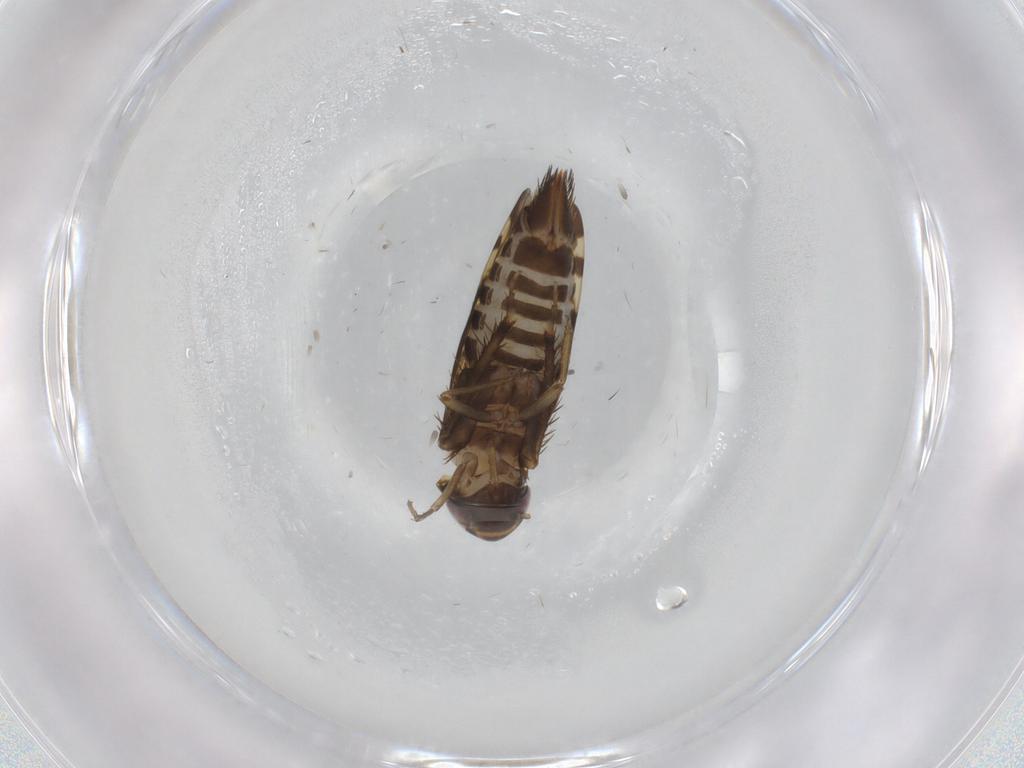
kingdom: Animalia
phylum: Arthropoda
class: Insecta
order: Hemiptera
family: Cicadellidae
